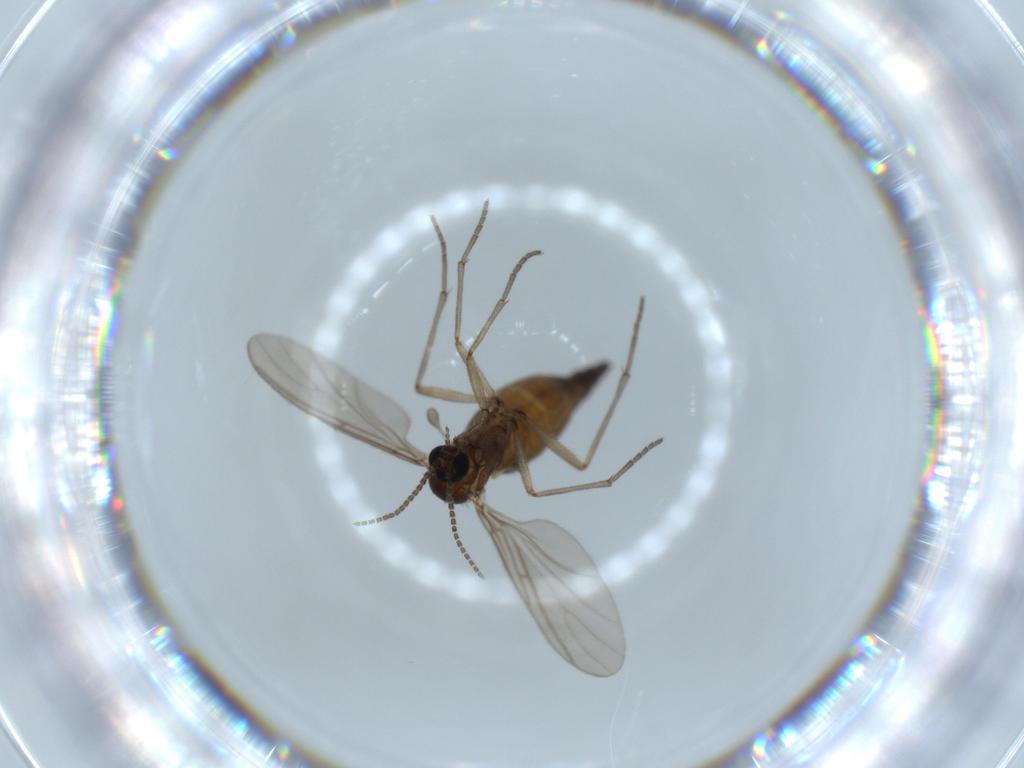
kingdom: Animalia
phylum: Arthropoda
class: Insecta
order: Diptera
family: Sciaridae
